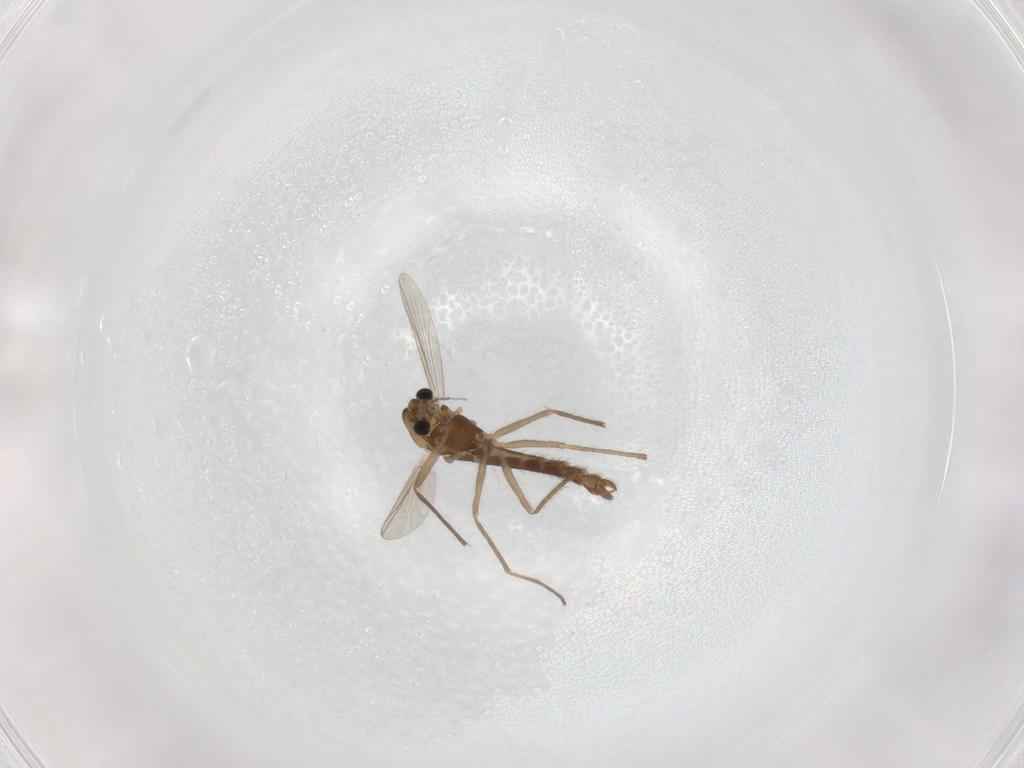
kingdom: Animalia
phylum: Arthropoda
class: Insecta
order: Diptera
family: Chironomidae
